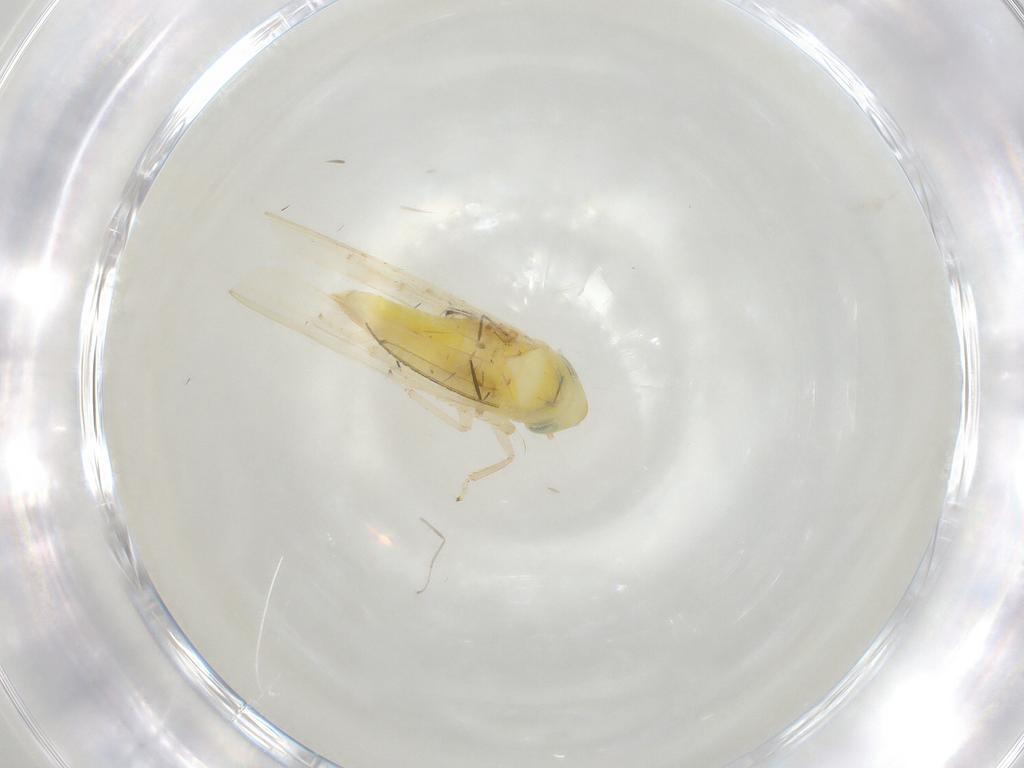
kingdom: Animalia
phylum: Arthropoda
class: Insecta
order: Hemiptera
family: Cicadellidae
